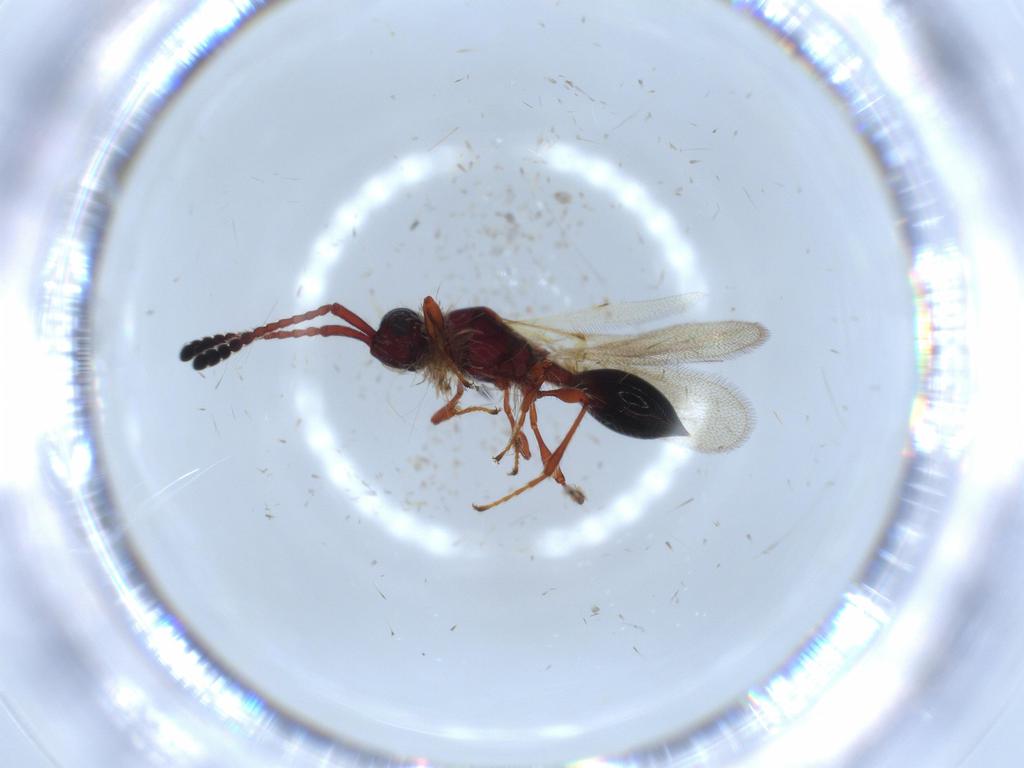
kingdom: Animalia
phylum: Arthropoda
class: Insecta
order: Hymenoptera
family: Diapriidae
